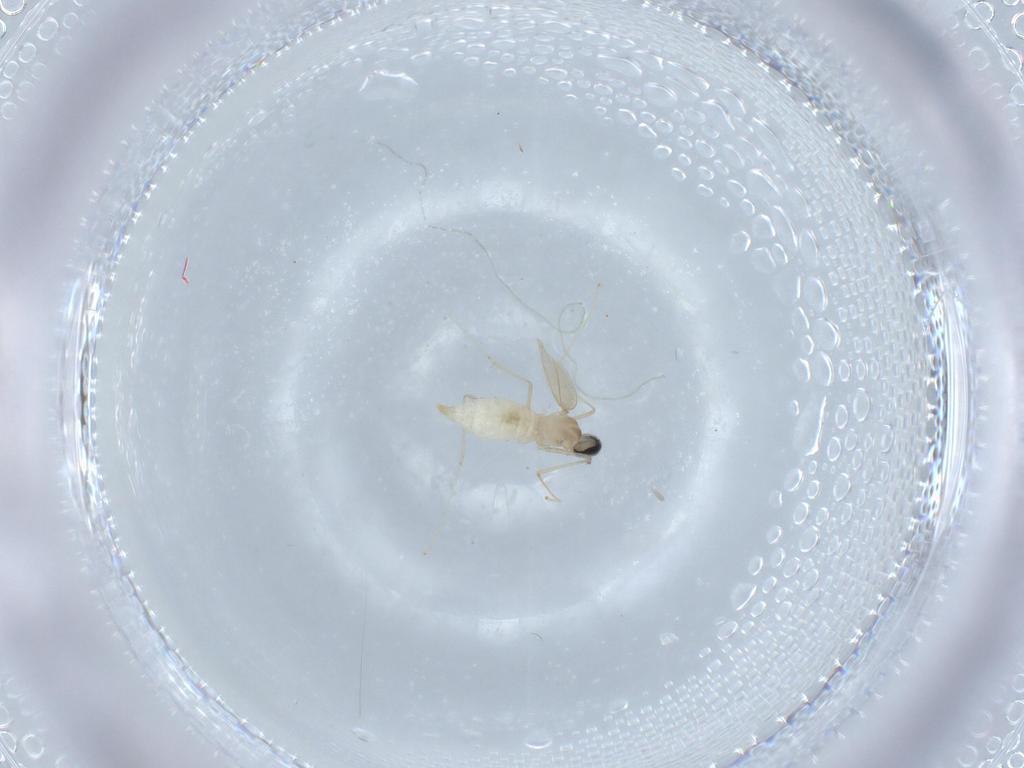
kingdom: Animalia
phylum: Arthropoda
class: Insecta
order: Diptera
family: Cecidomyiidae
